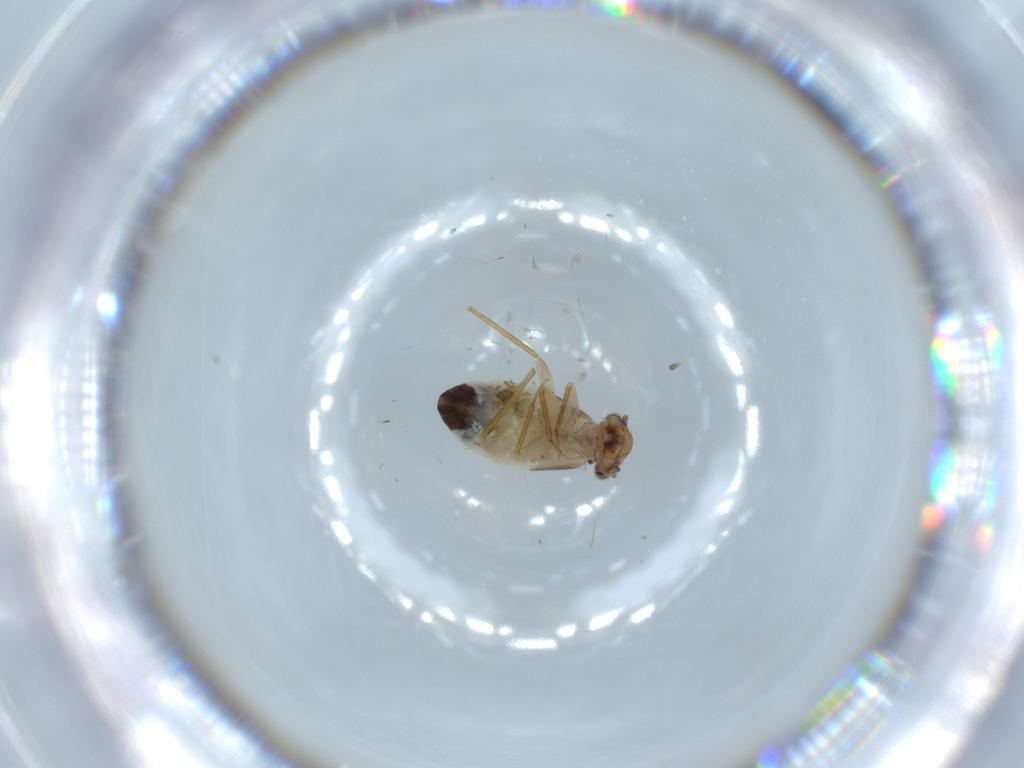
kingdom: Animalia
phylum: Arthropoda
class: Insecta
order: Psocodea
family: Lepidopsocidae
